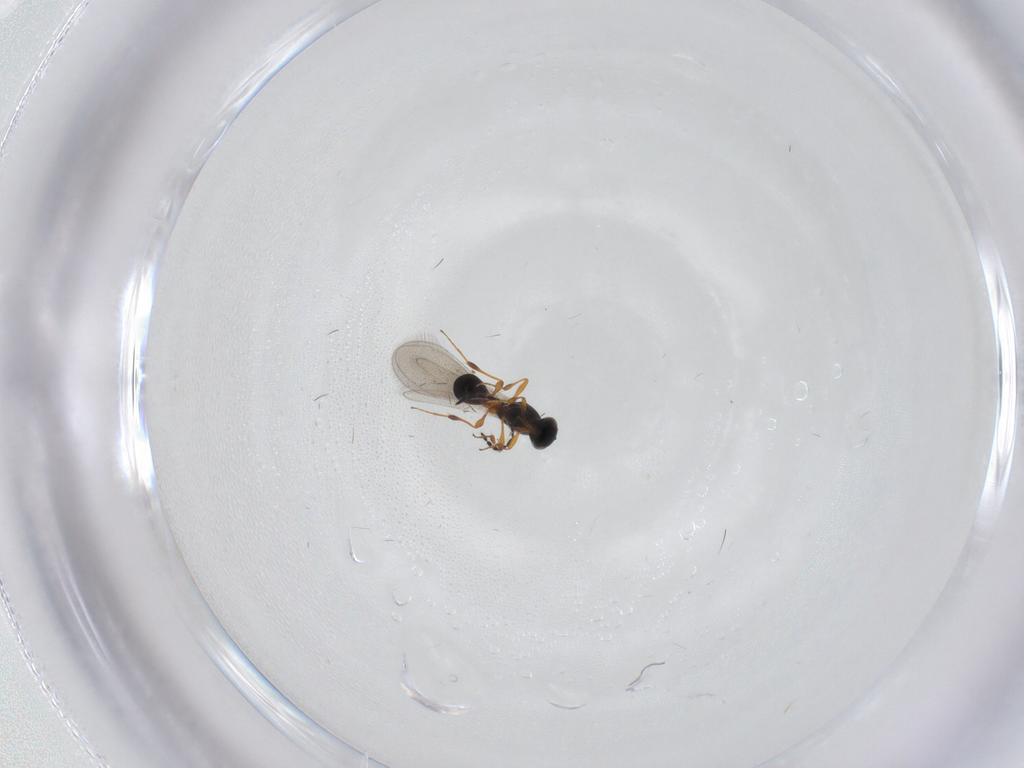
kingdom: Animalia
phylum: Arthropoda
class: Insecta
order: Hymenoptera
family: Platygastridae
